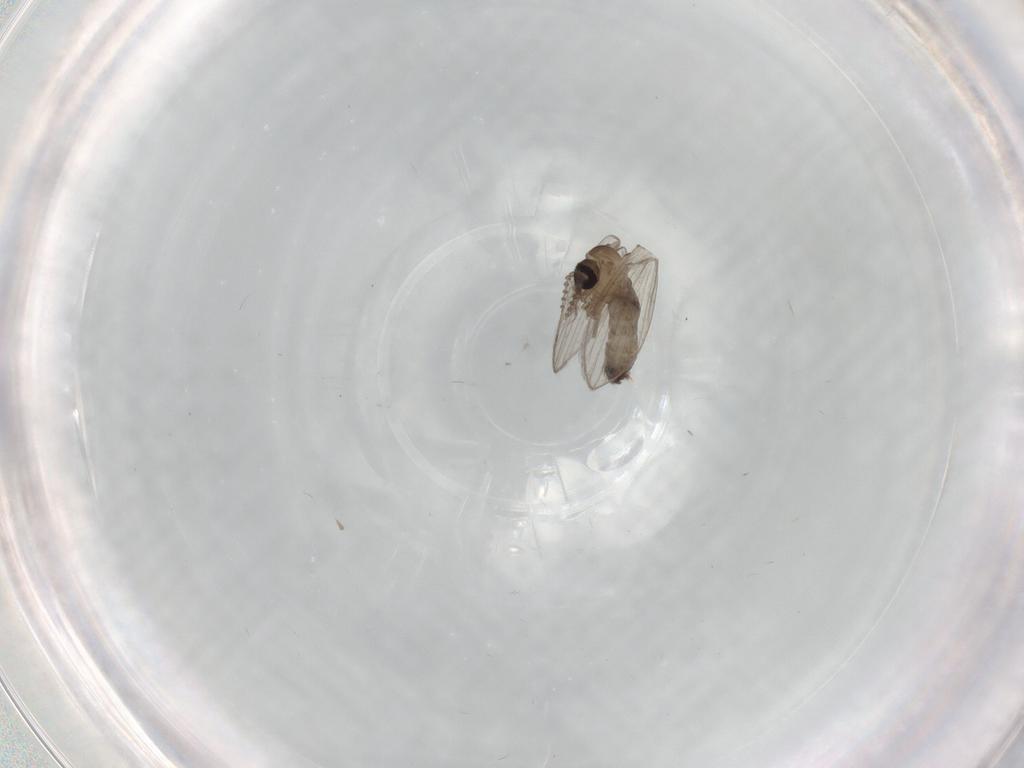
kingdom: Animalia
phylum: Arthropoda
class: Insecta
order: Diptera
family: Psychodidae
